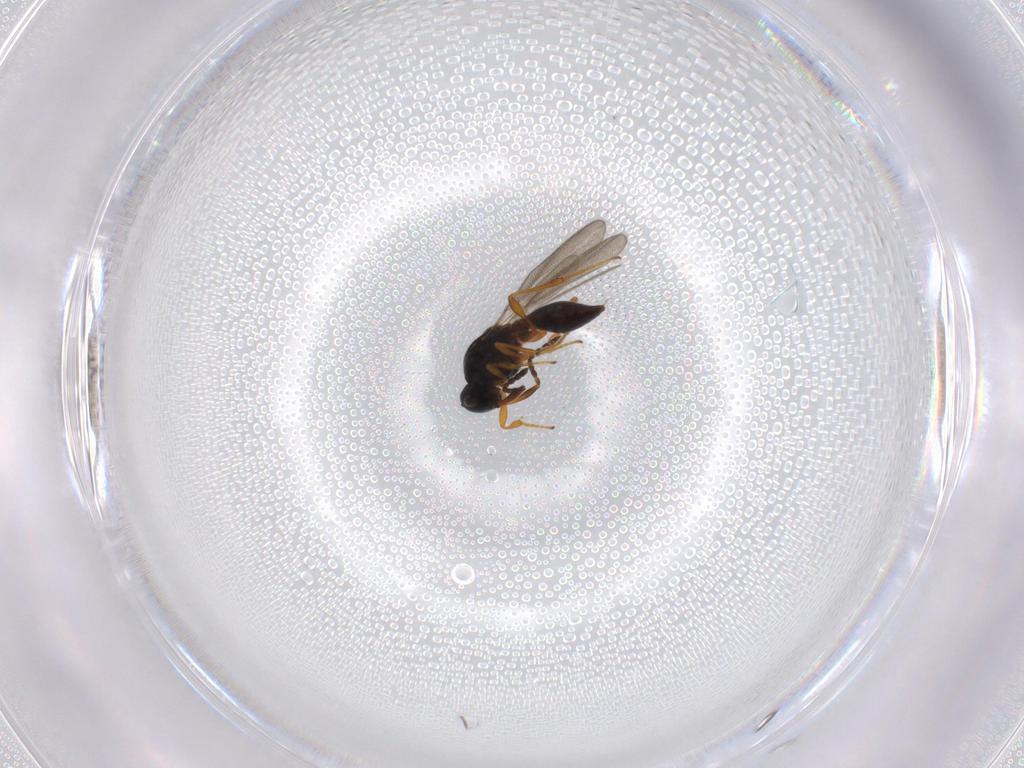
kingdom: Animalia
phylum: Arthropoda
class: Insecta
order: Hymenoptera
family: Platygastridae
